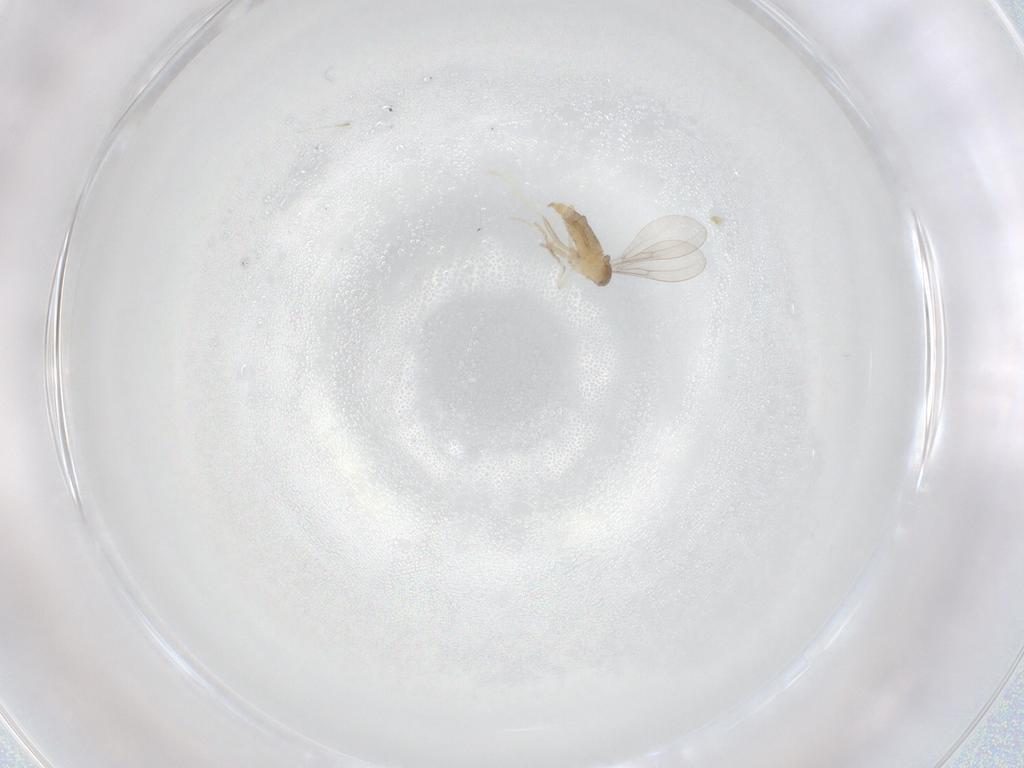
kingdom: Animalia
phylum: Arthropoda
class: Insecta
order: Diptera
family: Cecidomyiidae
